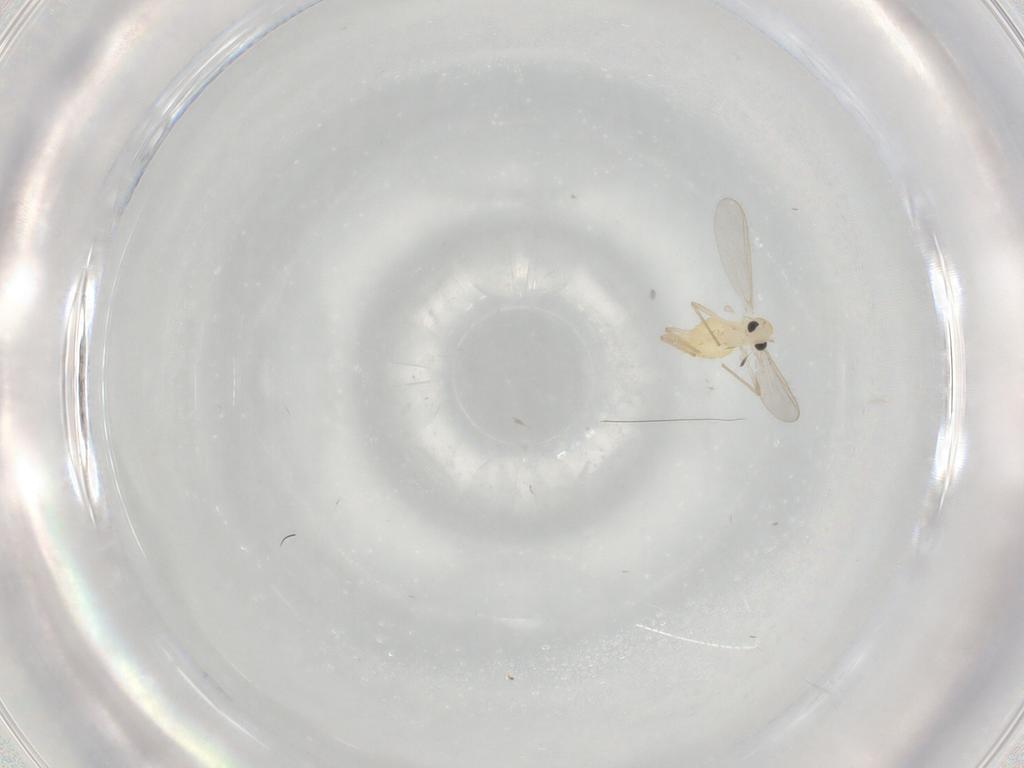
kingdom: Animalia
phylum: Arthropoda
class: Insecta
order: Diptera
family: Chironomidae
